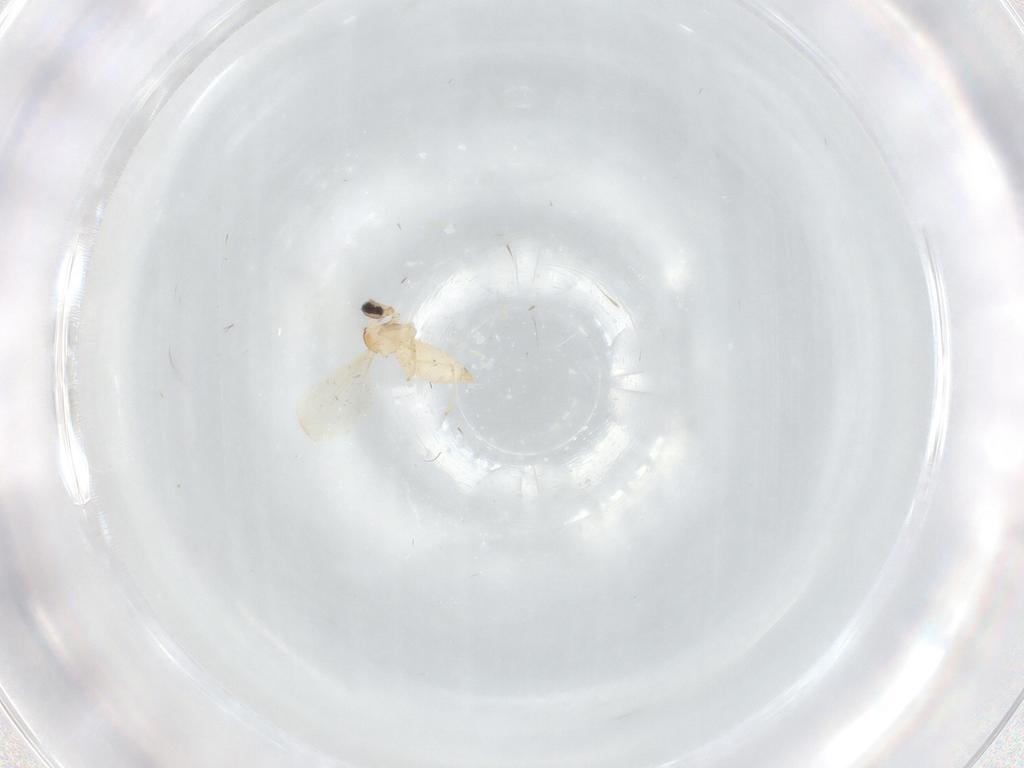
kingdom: Animalia
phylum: Arthropoda
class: Insecta
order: Diptera
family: Cecidomyiidae
